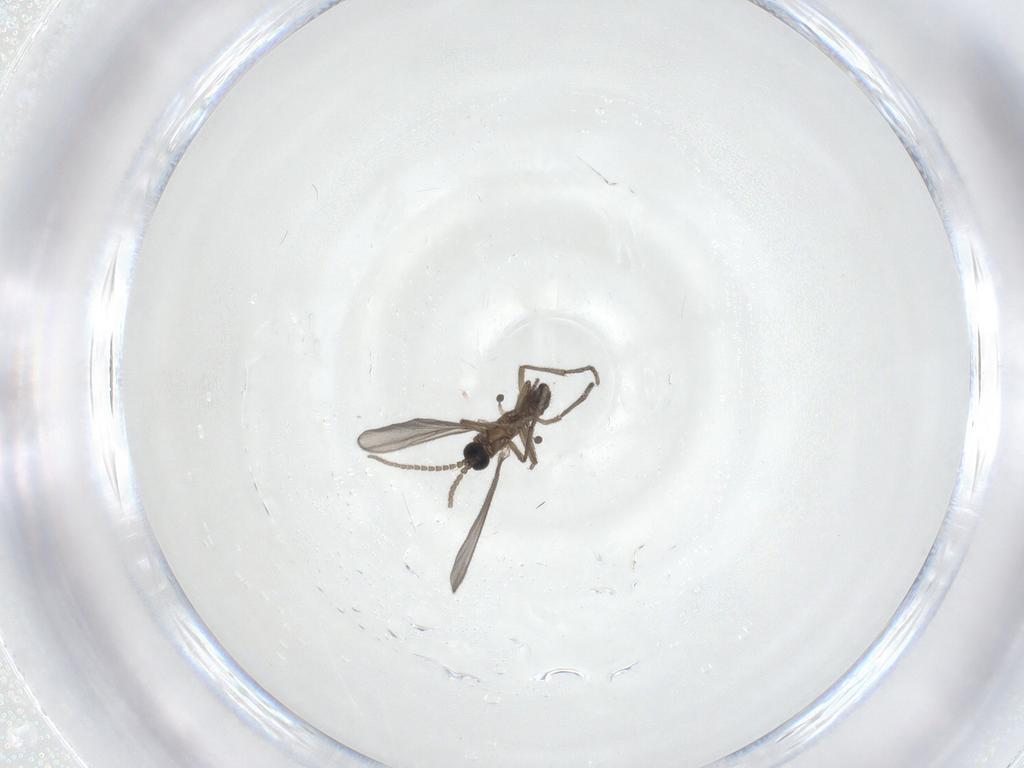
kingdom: Animalia
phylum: Arthropoda
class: Insecta
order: Diptera
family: Sciaridae
